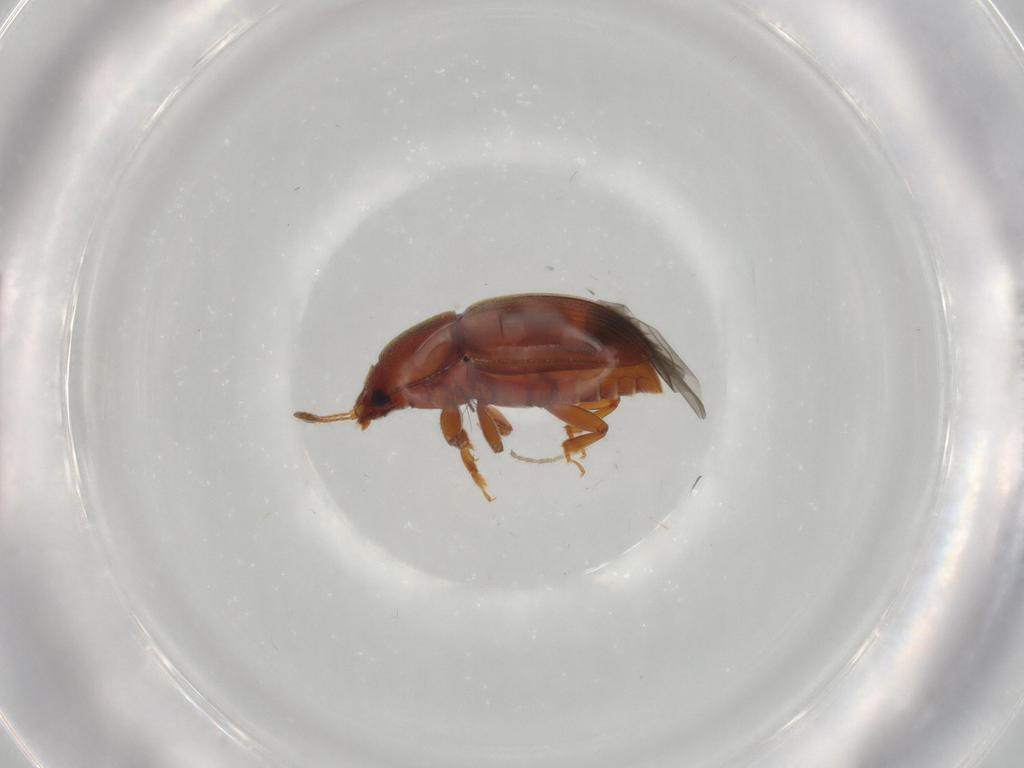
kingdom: Animalia
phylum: Arthropoda
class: Insecta
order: Coleoptera
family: Nitidulidae
